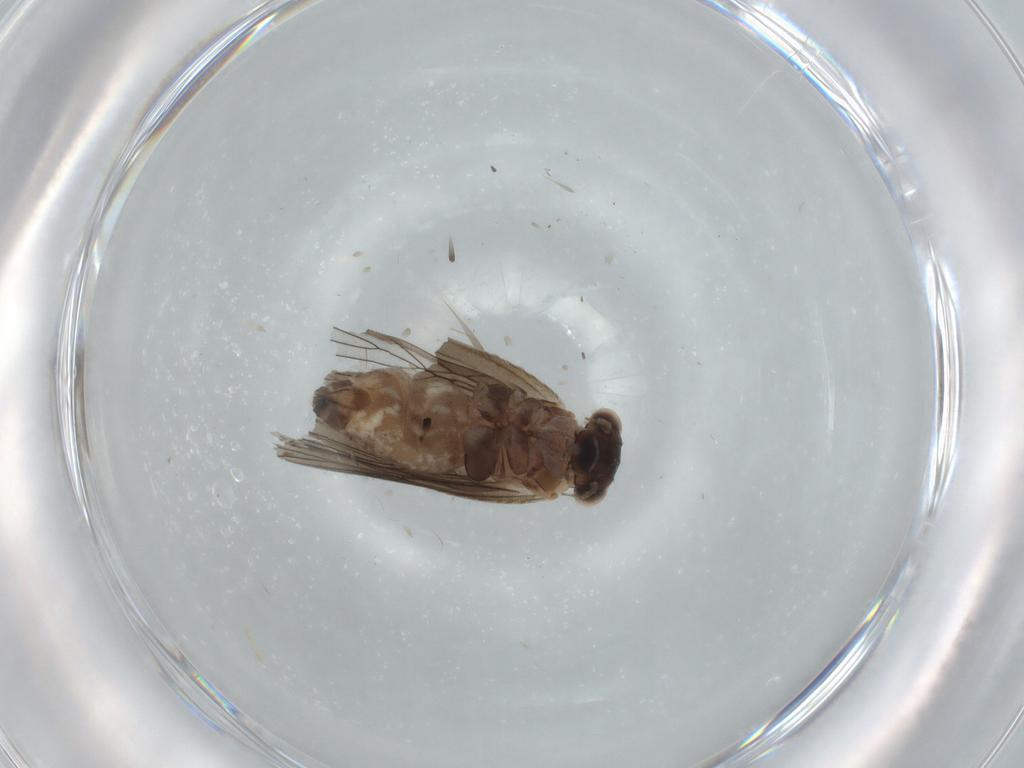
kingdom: Animalia
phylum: Arthropoda
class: Insecta
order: Psocodea
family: Lepidopsocidae
